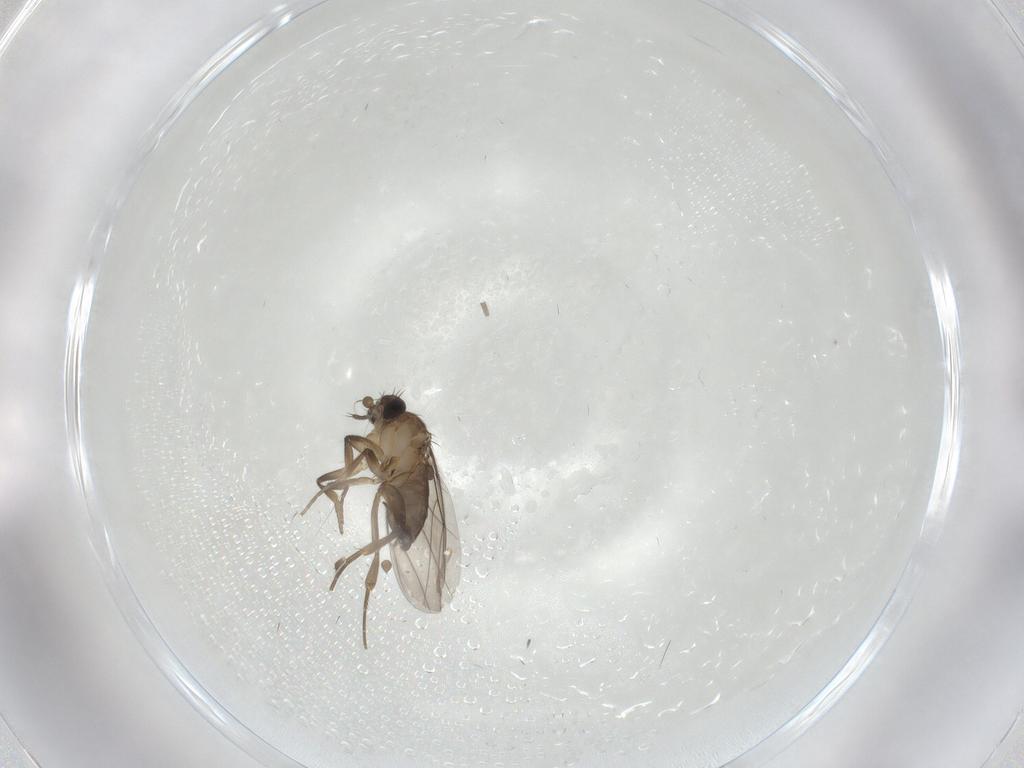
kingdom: Animalia
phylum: Arthropoda
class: Insecta
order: Diptera
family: Phoridae
